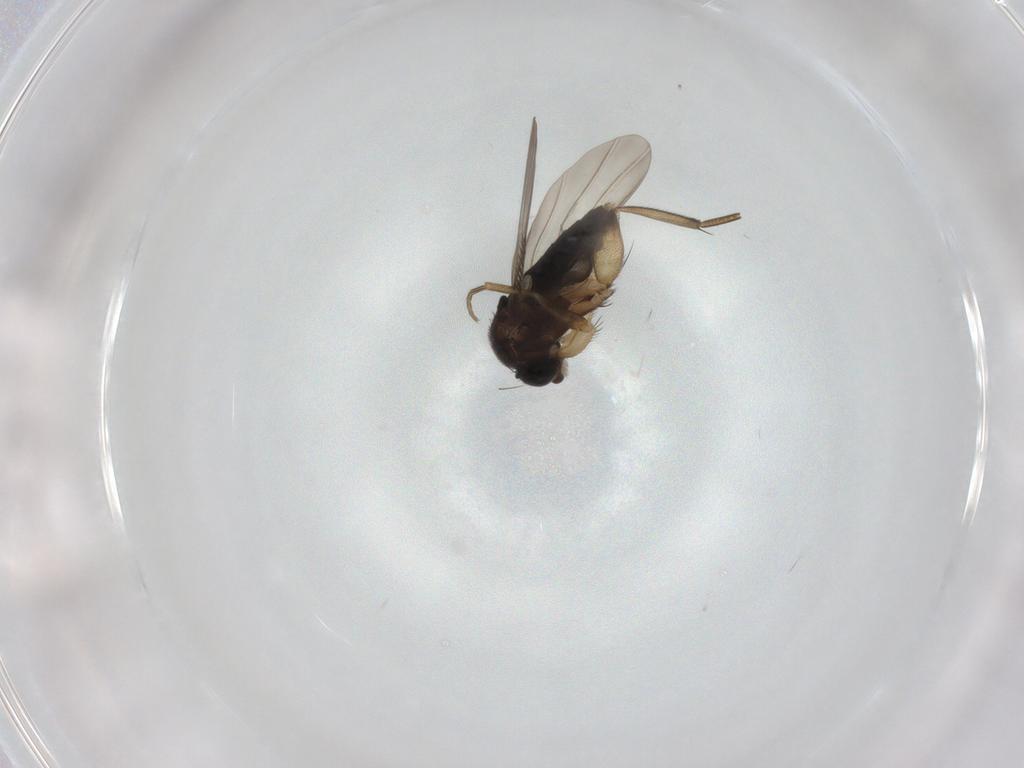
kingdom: Animalia
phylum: Arthropoda
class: Insecta
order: Diptera
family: Phoridae
